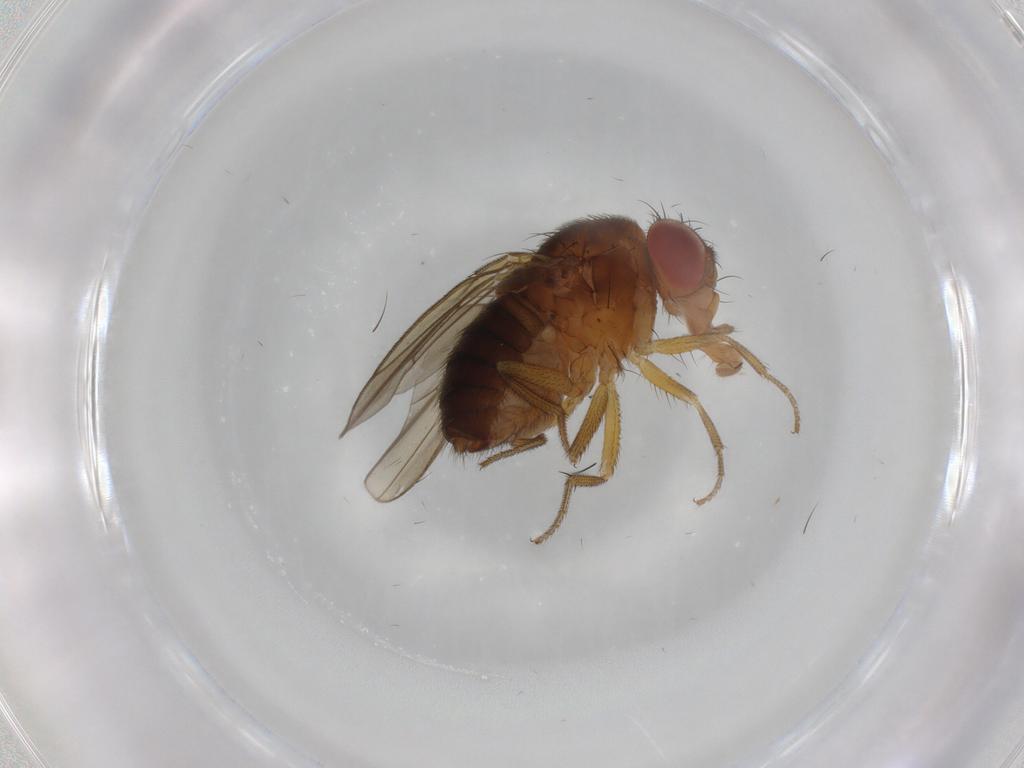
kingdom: Animalia
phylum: Arthropoda
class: Insecta
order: Diptera
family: Drosophilidae
